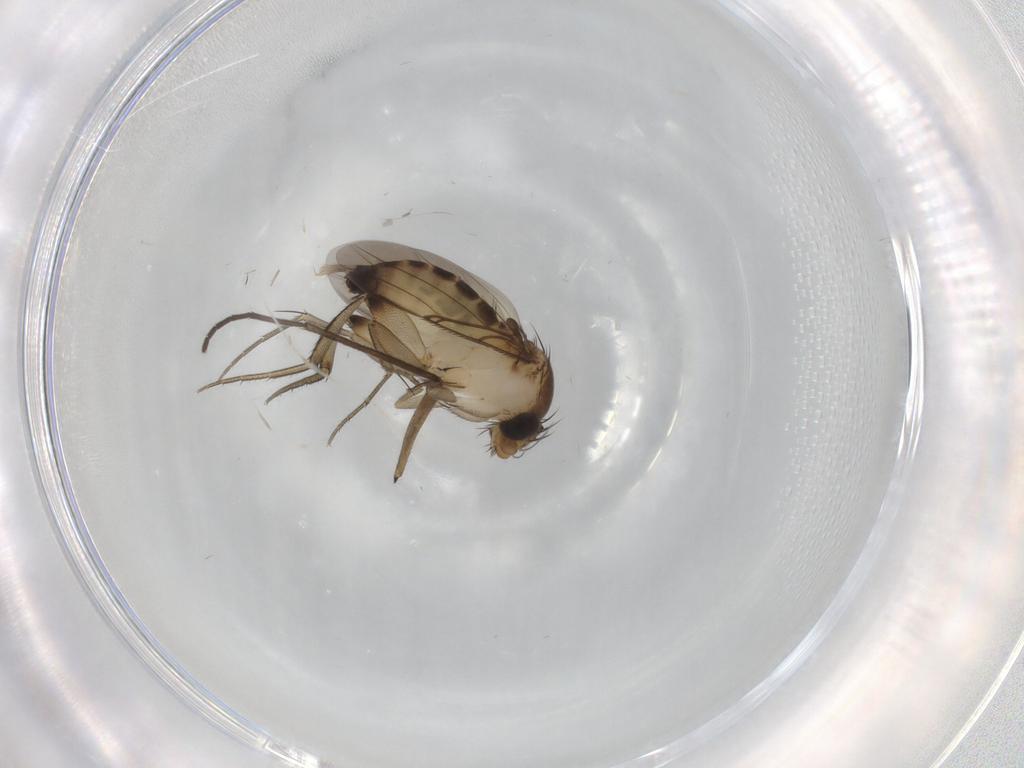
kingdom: Animalia
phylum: Arthropoda
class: Insecta
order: Diptera
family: Phoridae
